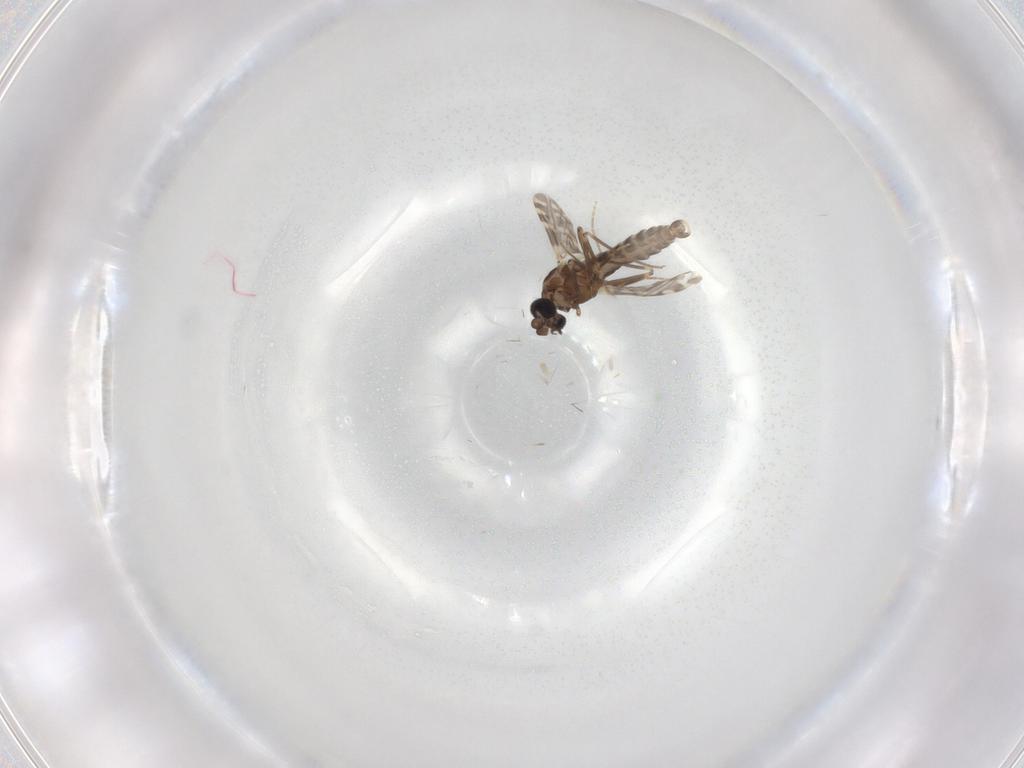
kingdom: Animalia
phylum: Arthropoda
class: Insecta
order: Diptera
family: Ceratopogonidae
